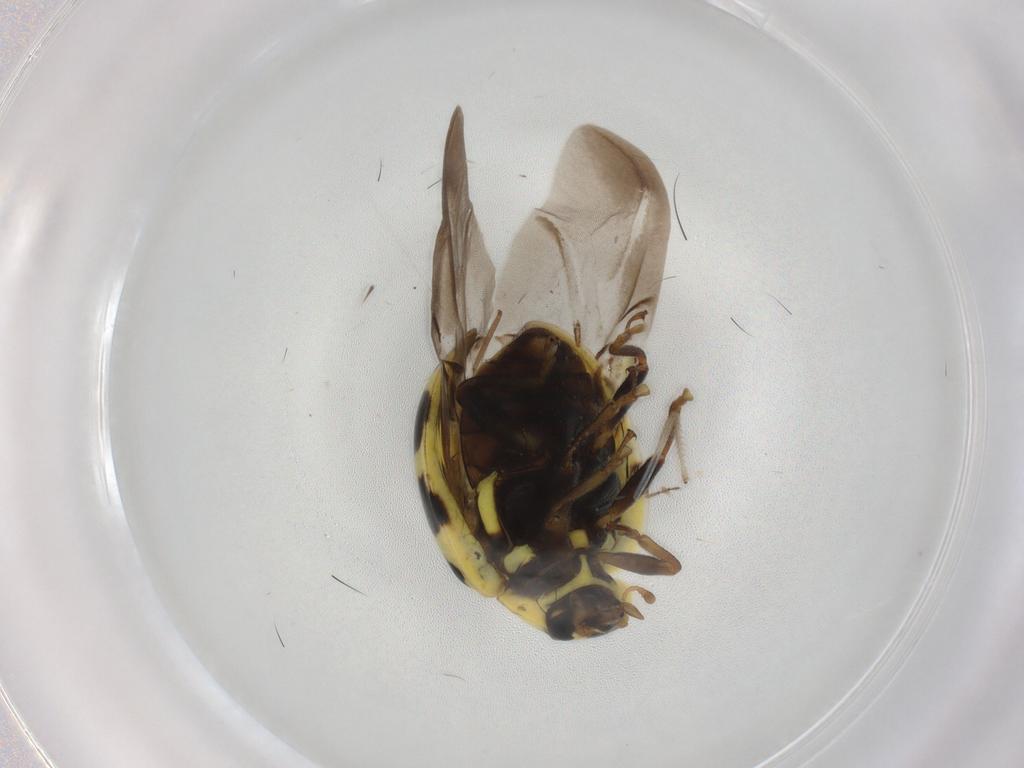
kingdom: Animalia
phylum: Arthropoda
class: Insecta
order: Coleoptera
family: Coccinellidae
